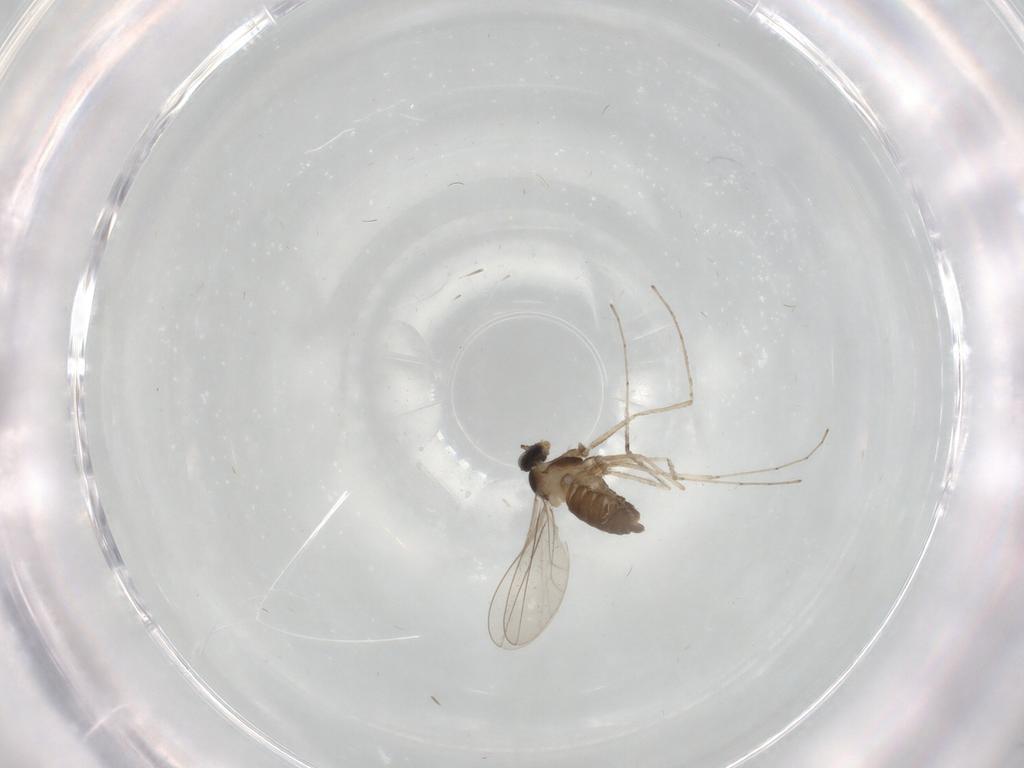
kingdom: Animalia
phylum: Arthropoda
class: Insecta
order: Diptera
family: Cecidomyiidae
